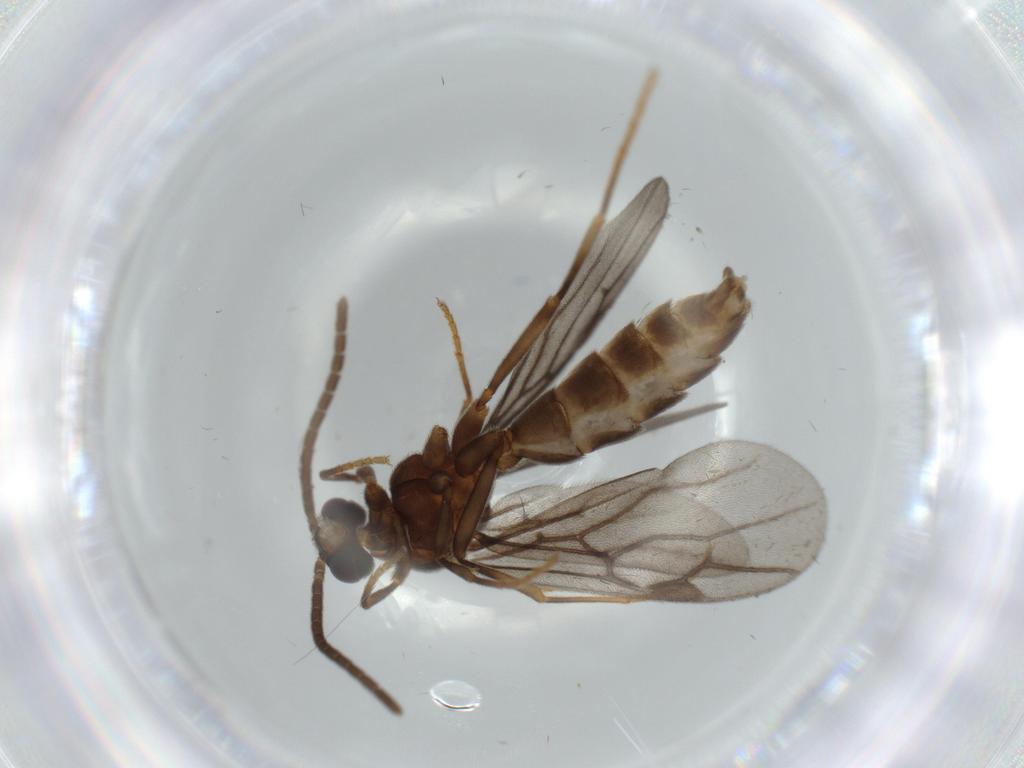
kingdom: Animalia
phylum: Arthropoda
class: Insecta
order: Hymenoptera
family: Formicidae
